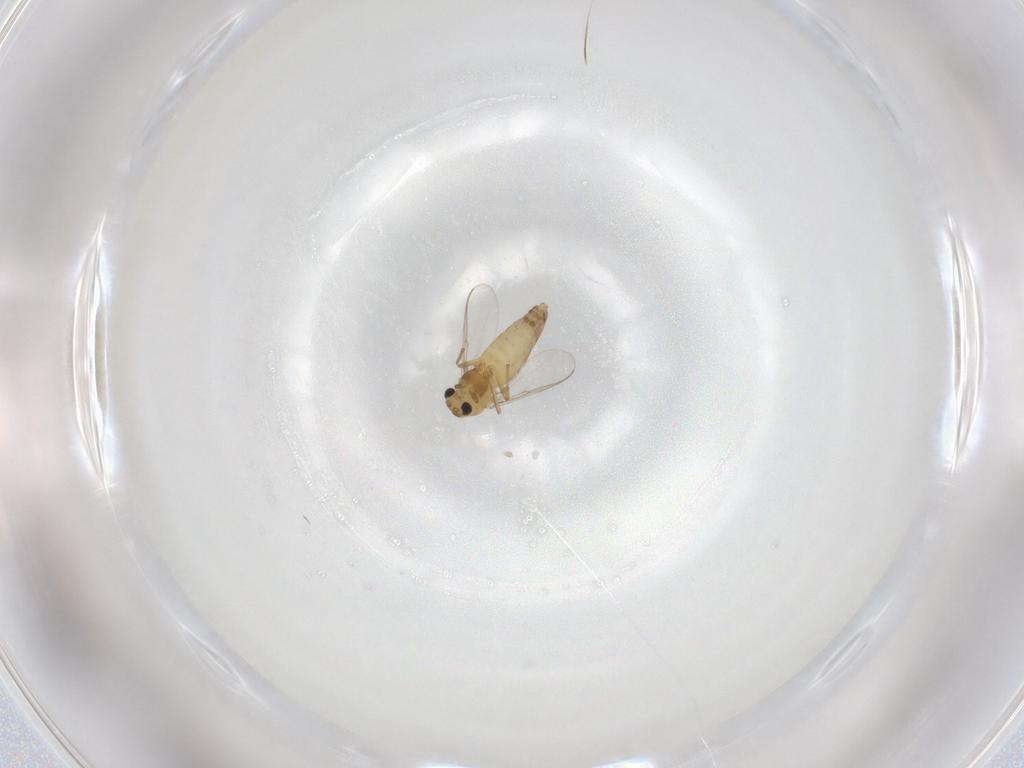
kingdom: Animalia
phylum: Arthropoda
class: Insecta
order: Diptera
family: Chironomidae
